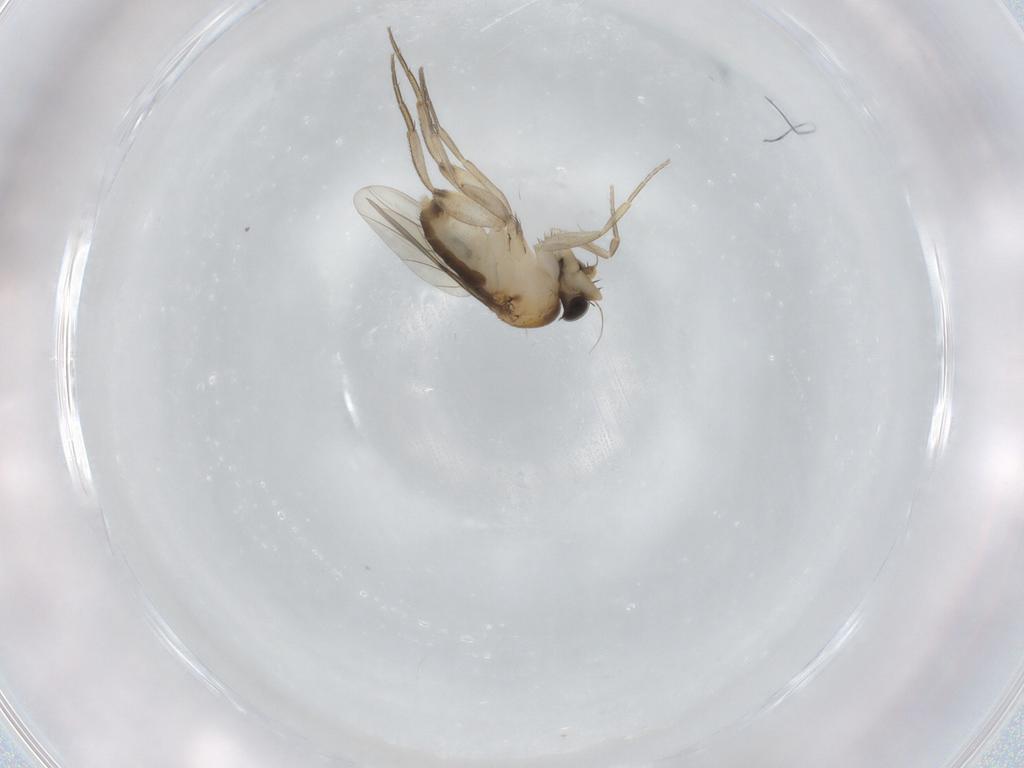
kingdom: Animalia
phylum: Arthropoda
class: Insecta
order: Diptera
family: Phoridae
